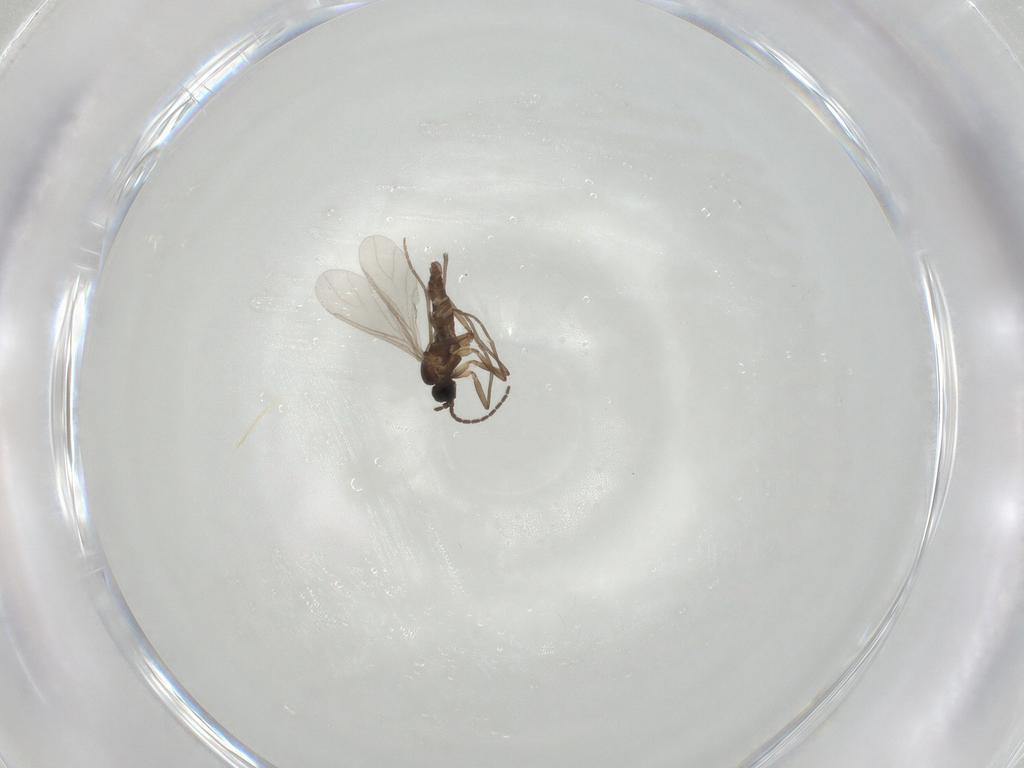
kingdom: Animalia
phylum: Arthropoda
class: Insecta
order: Diptera
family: Sciaridae
